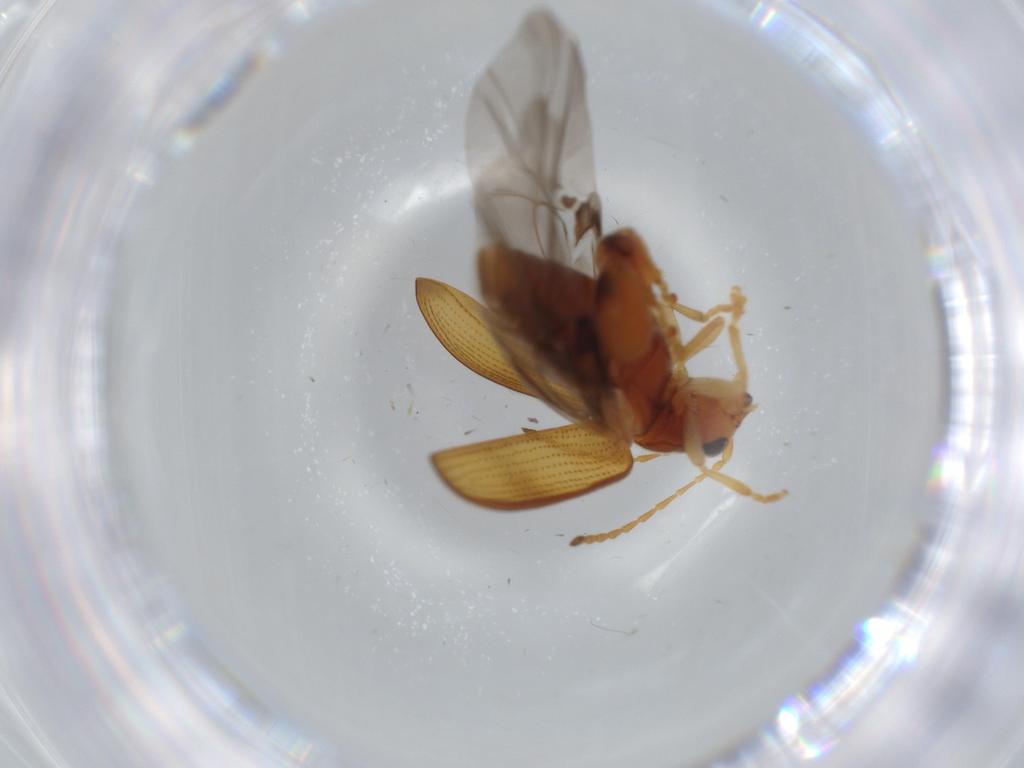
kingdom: Animalia
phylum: Arthropoda
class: Insecta
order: Coleoptera
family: Chrysomelidae
